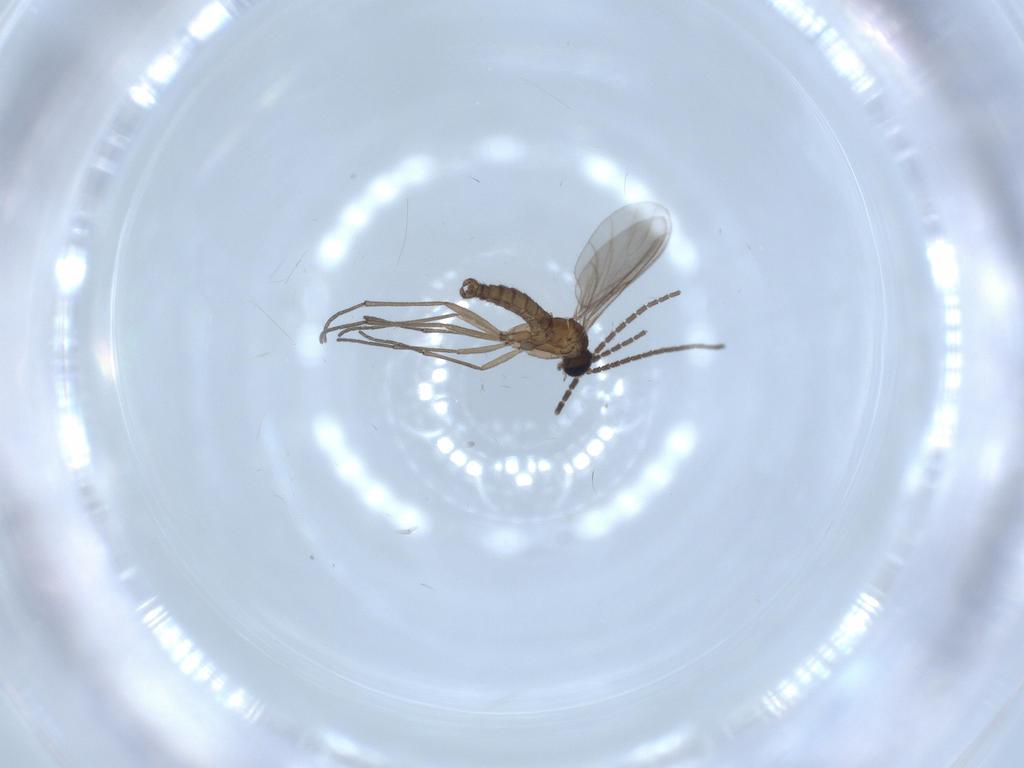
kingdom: Animalia
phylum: Arthropoda
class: Insecta
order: Diptera
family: Sciaridae
